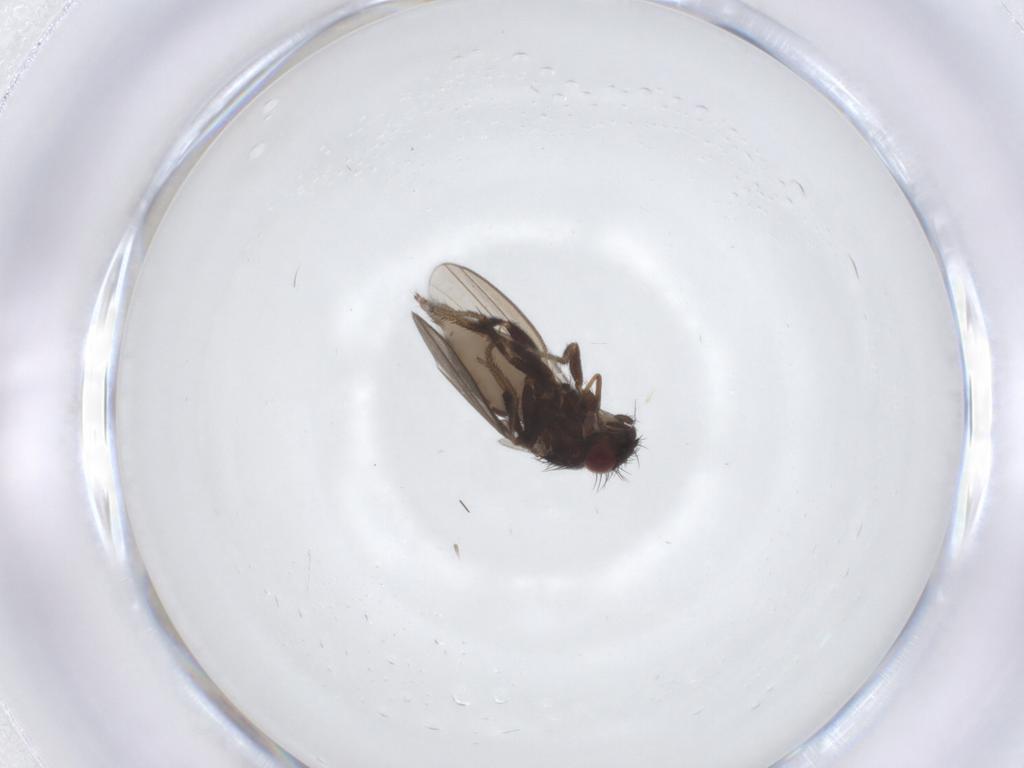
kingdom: Animalia
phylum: Arthropoda
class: Insecta
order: Diptera
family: Milichiidae
